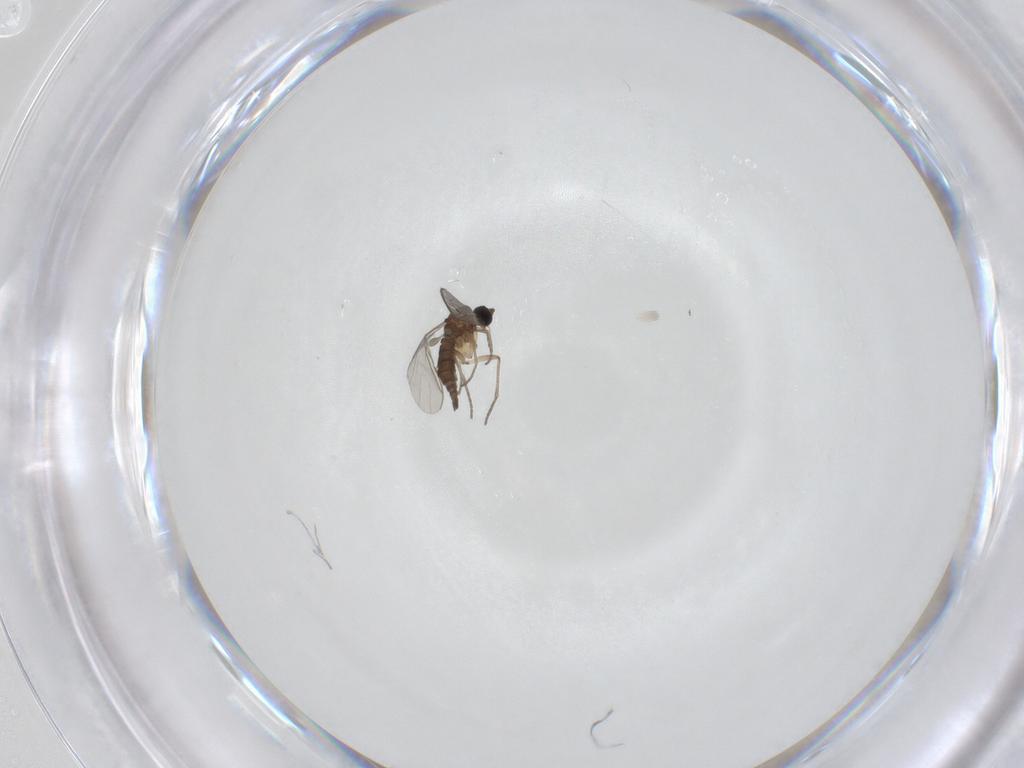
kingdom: Animalia
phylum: Arthropoda
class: Insecta
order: Diptera
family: Sciaridae
